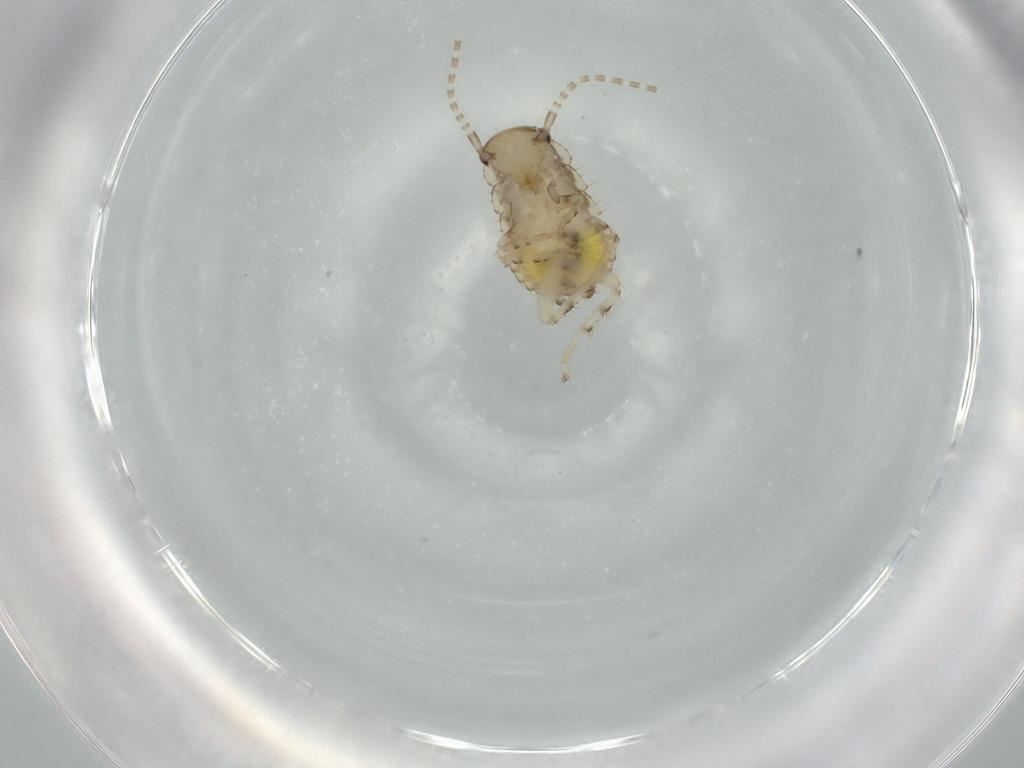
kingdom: Animalia
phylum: Arthropoda
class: Insecta
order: Blattodea
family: Ectobiidae
